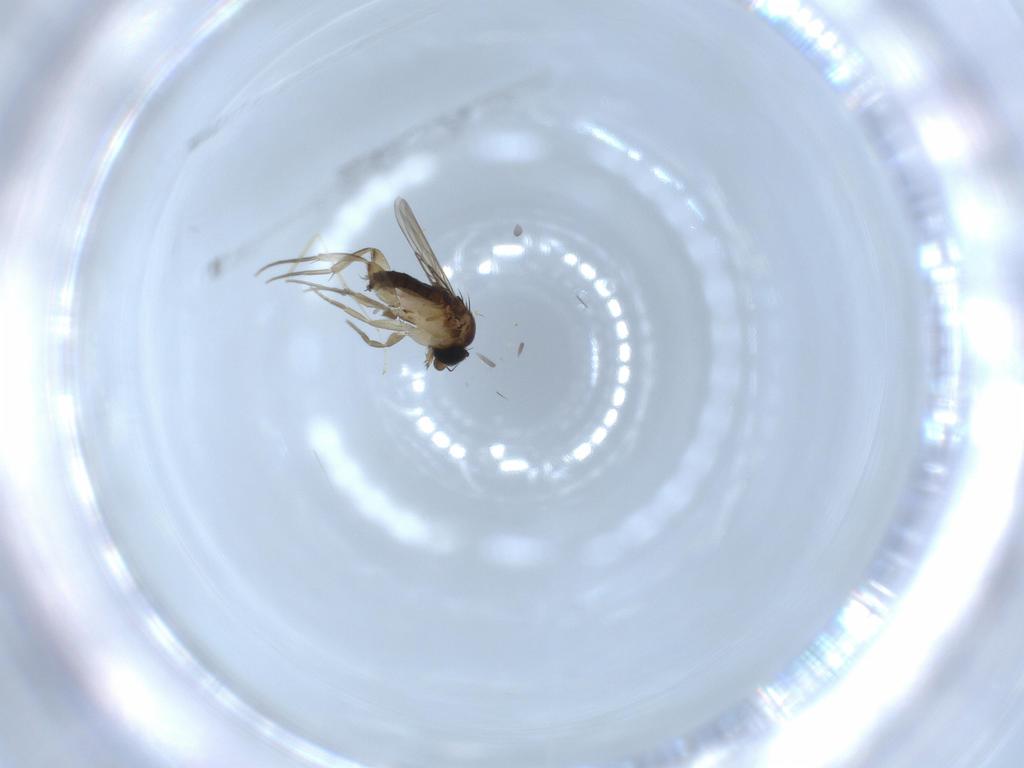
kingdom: Animalia
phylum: Arthropoda
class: Insecta
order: Diptera
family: Phoridae
